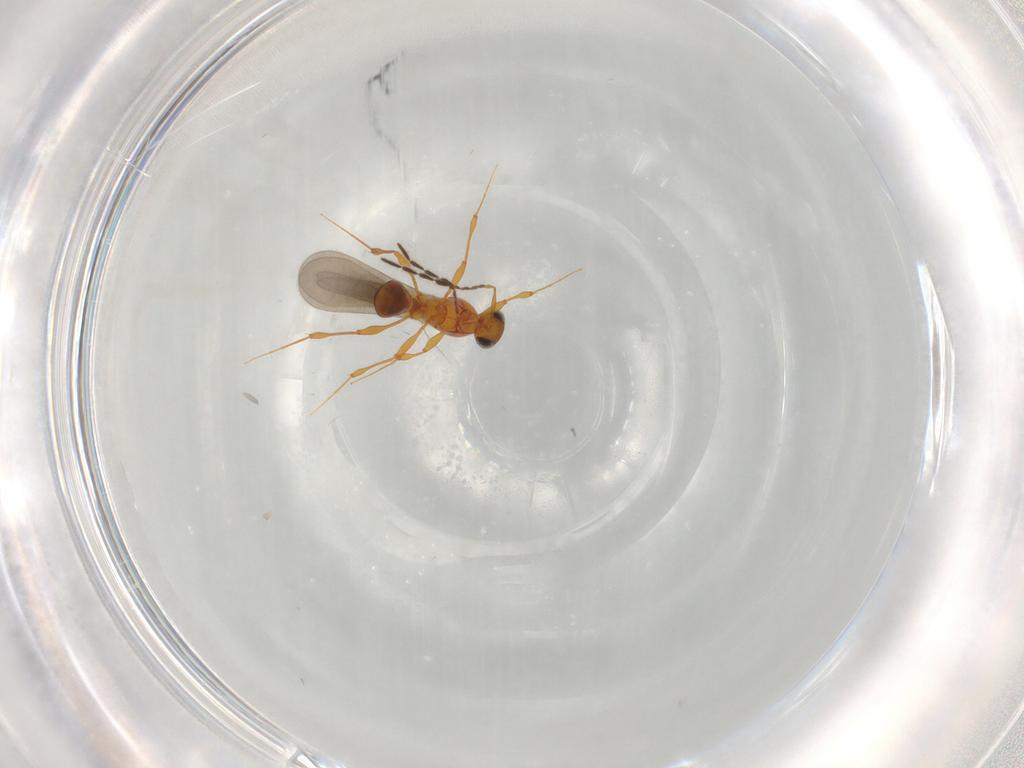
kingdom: Animalia
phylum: Arthropoda
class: Insecta
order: Hymenoptera
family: Platygastridae
